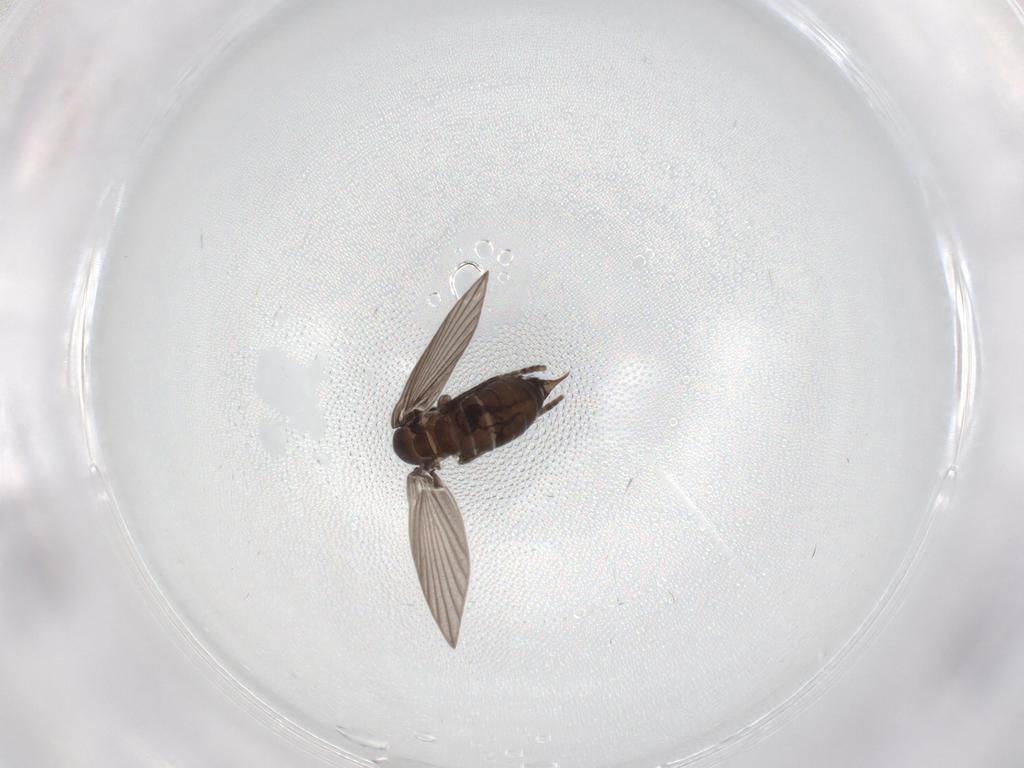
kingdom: Animalia
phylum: Arthropoda
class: Insecta
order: Diptera
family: Psychodidae
